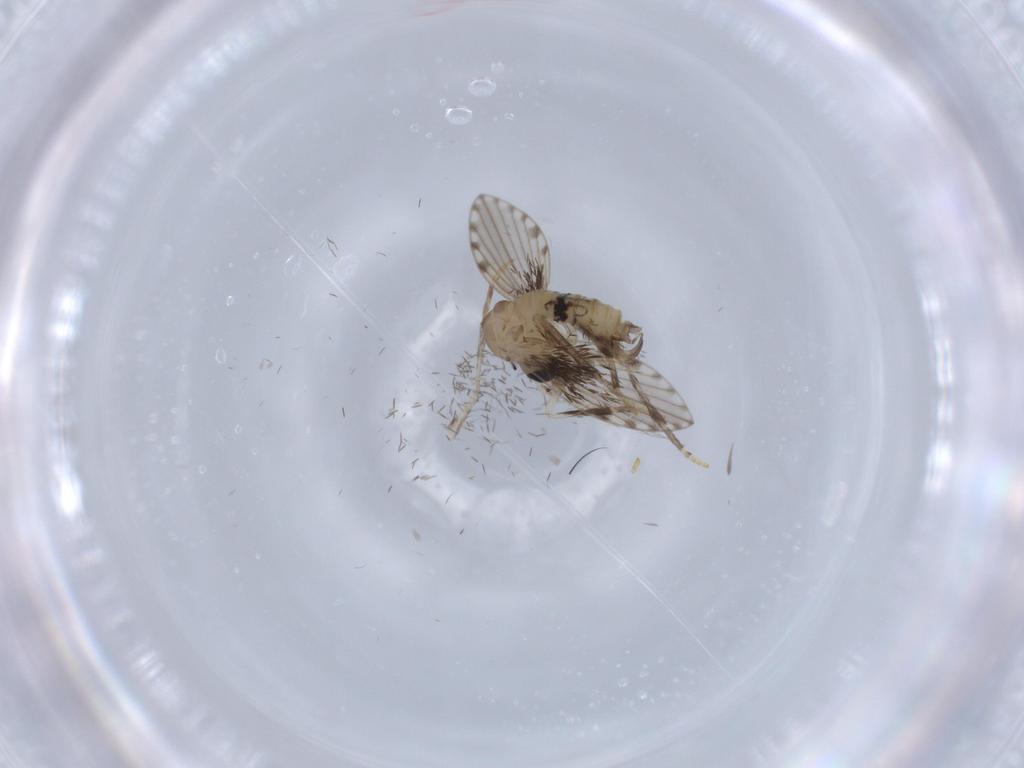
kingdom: Animalia
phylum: Arthropoda
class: Insecta
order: Diptera
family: Psychodidae
